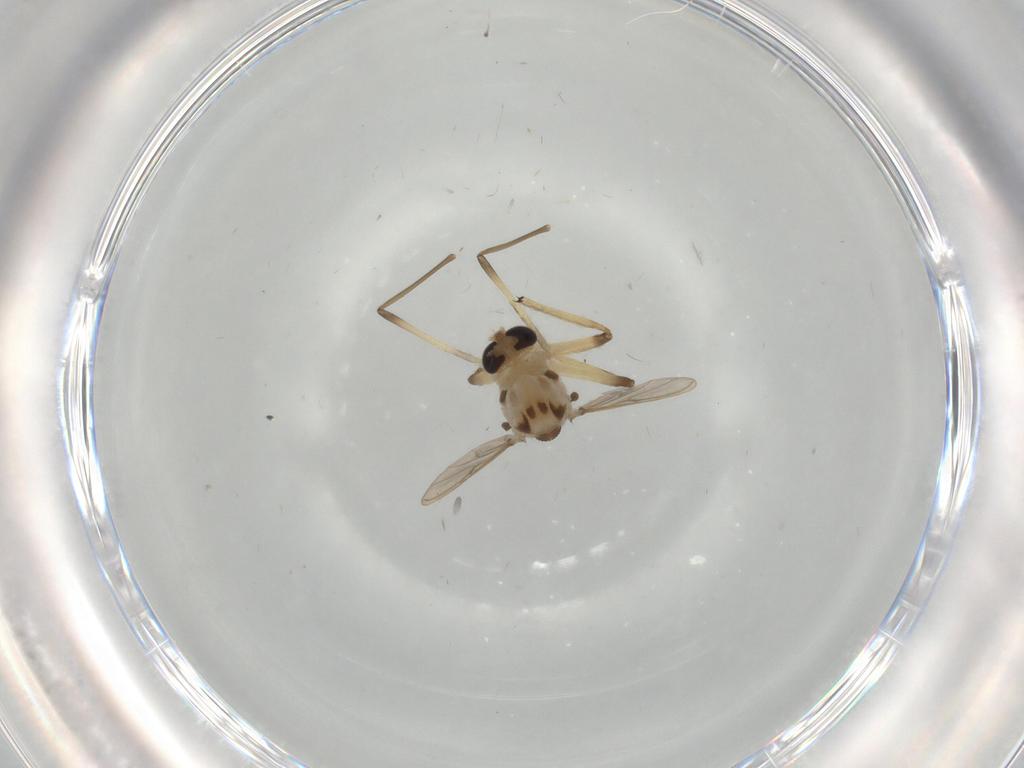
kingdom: Animalia
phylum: Arthropoda
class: Insecta
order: Diptera
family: Chironomidae
